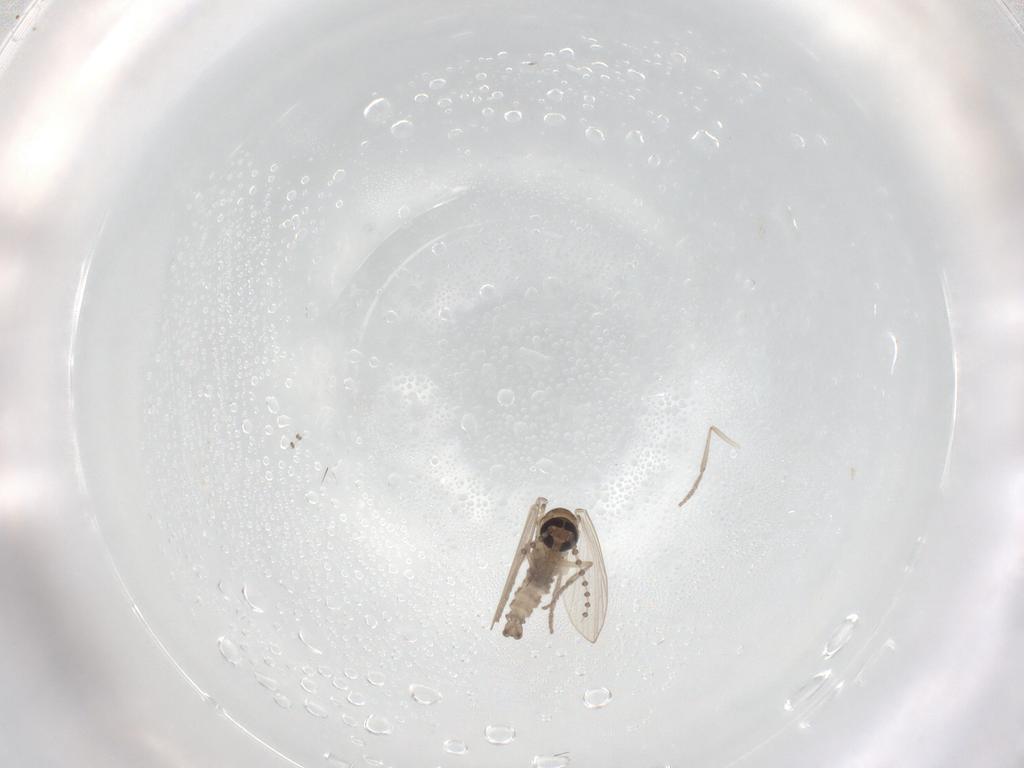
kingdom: Animalia
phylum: Arthropoda
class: Insecta
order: Diptera
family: Psychodidae
